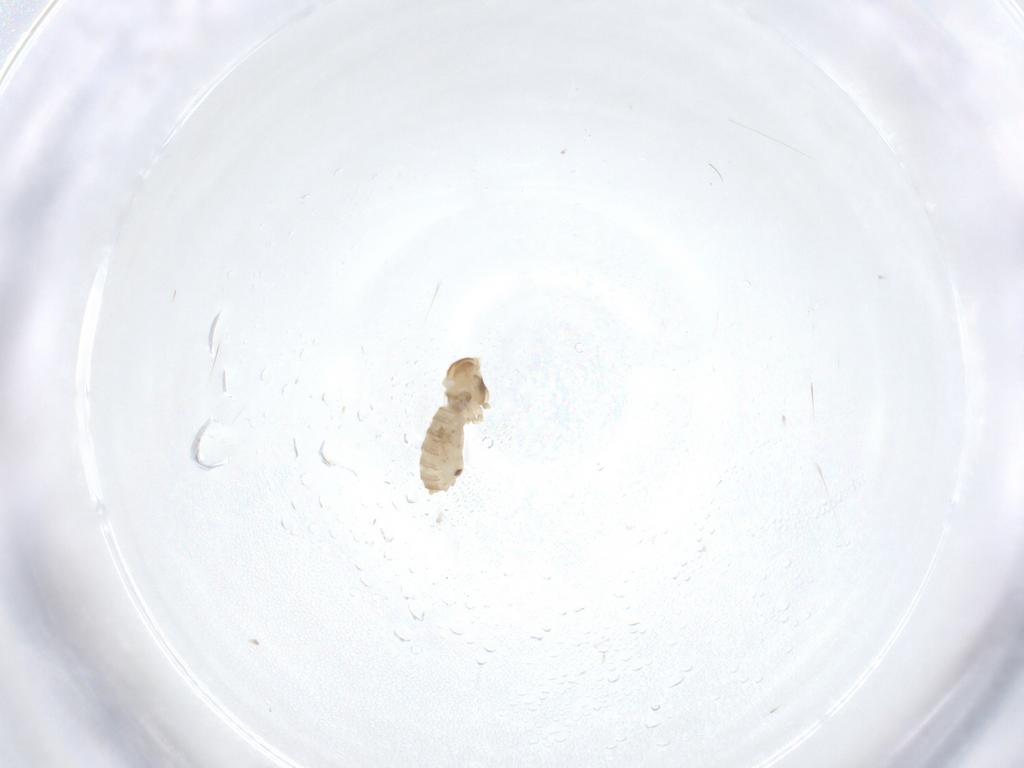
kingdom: Animalia
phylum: Arthropoda
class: Insecta
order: Diptera
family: Cecidomyiidae
